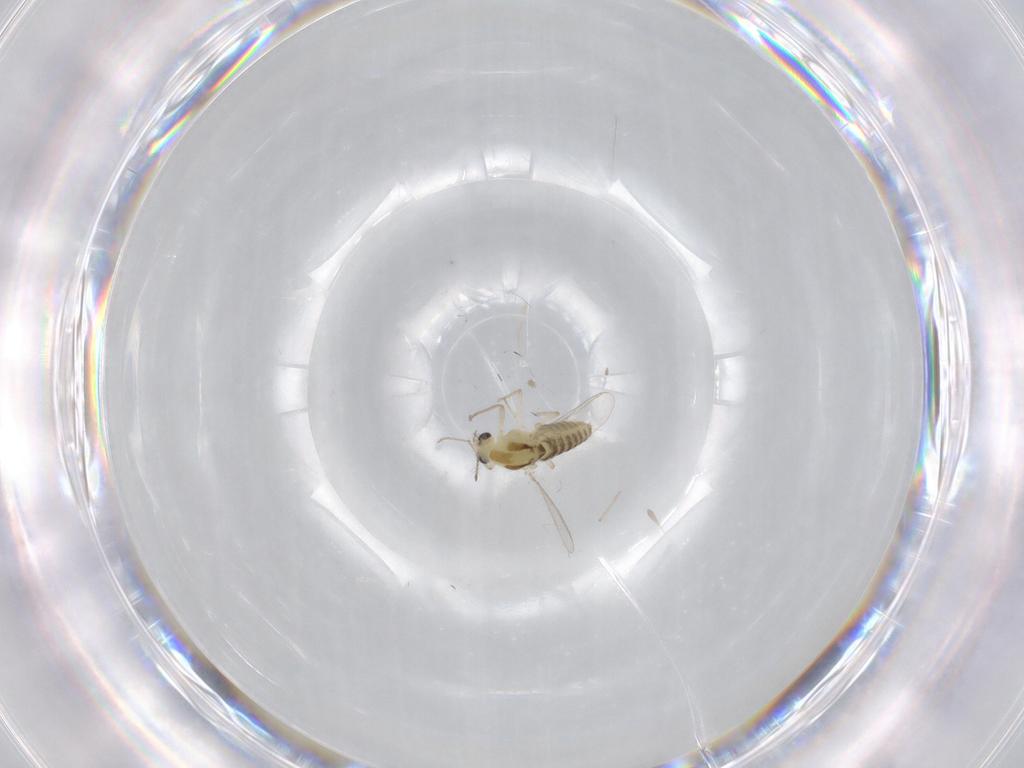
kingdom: Animalia
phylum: Arthropoda
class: Insecta
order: Diptera
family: Chironomidae
